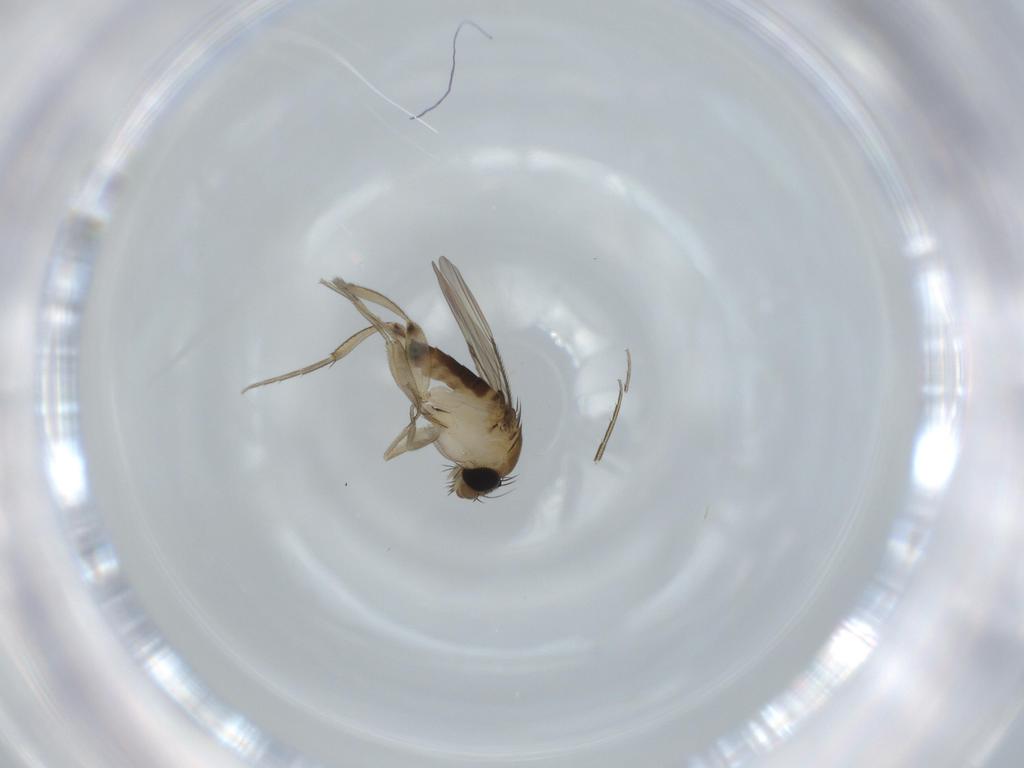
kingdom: Animalia
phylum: Arthropoda
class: Insecta
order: Diptera
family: Phoridae
